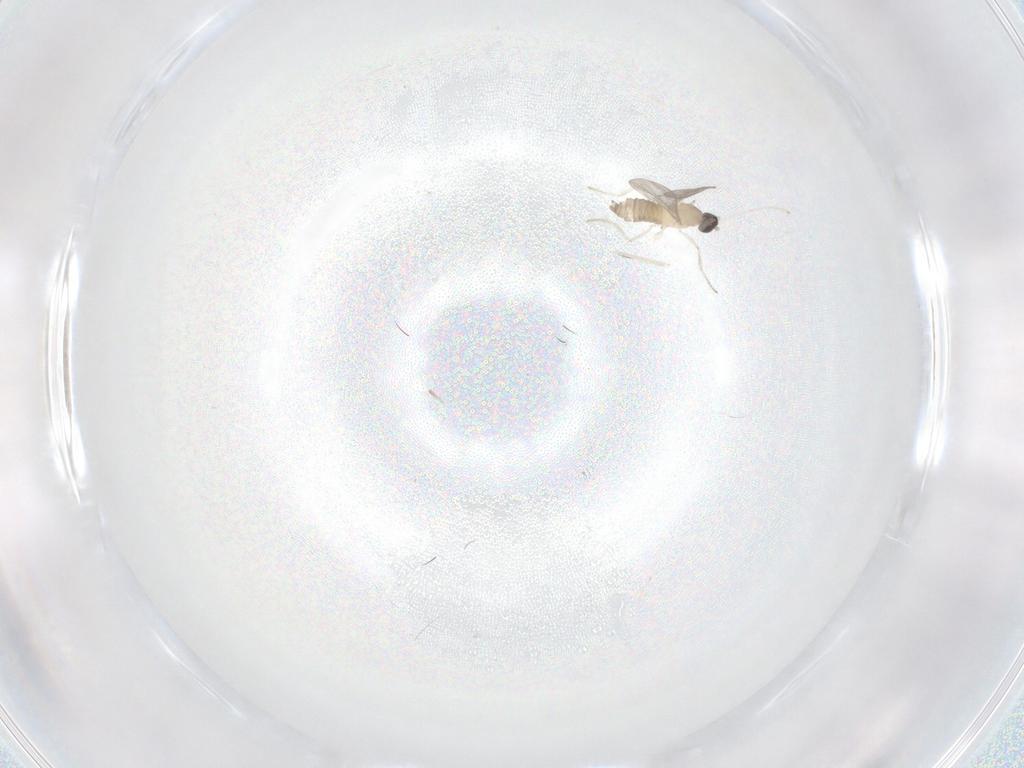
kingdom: Animalia
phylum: Arthropoda
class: Insecta
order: Diptera
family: Cecidomyiidae
